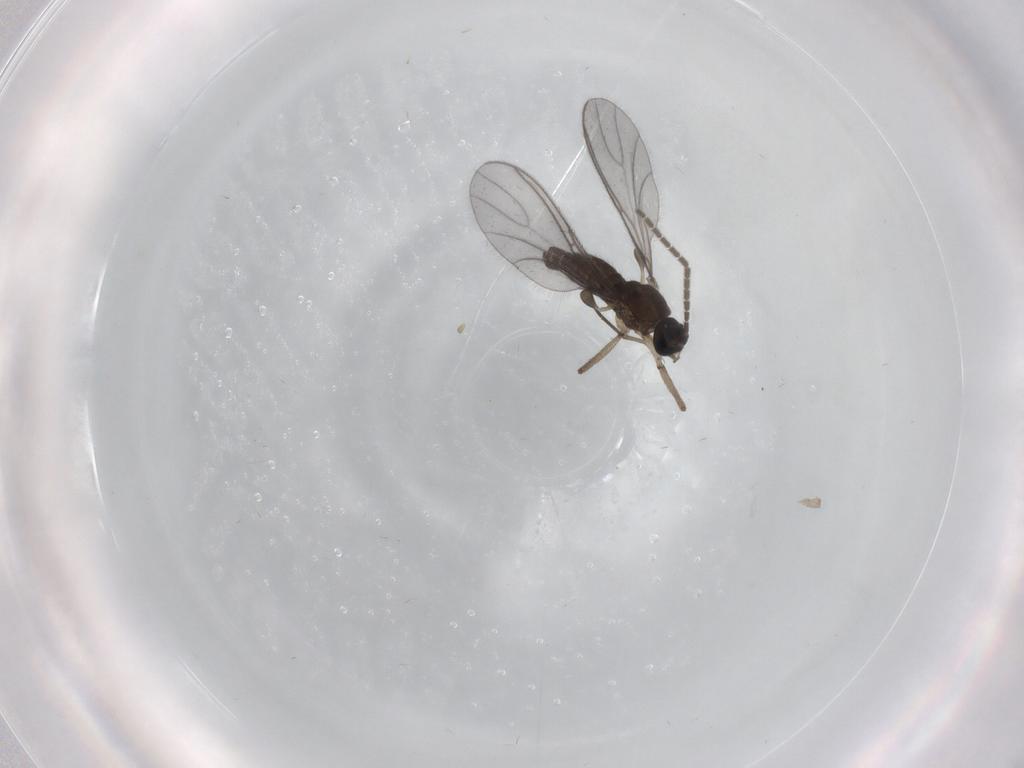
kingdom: Animalia
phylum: Arthropoda
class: Insecta
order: Diptera
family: Sciaridae
